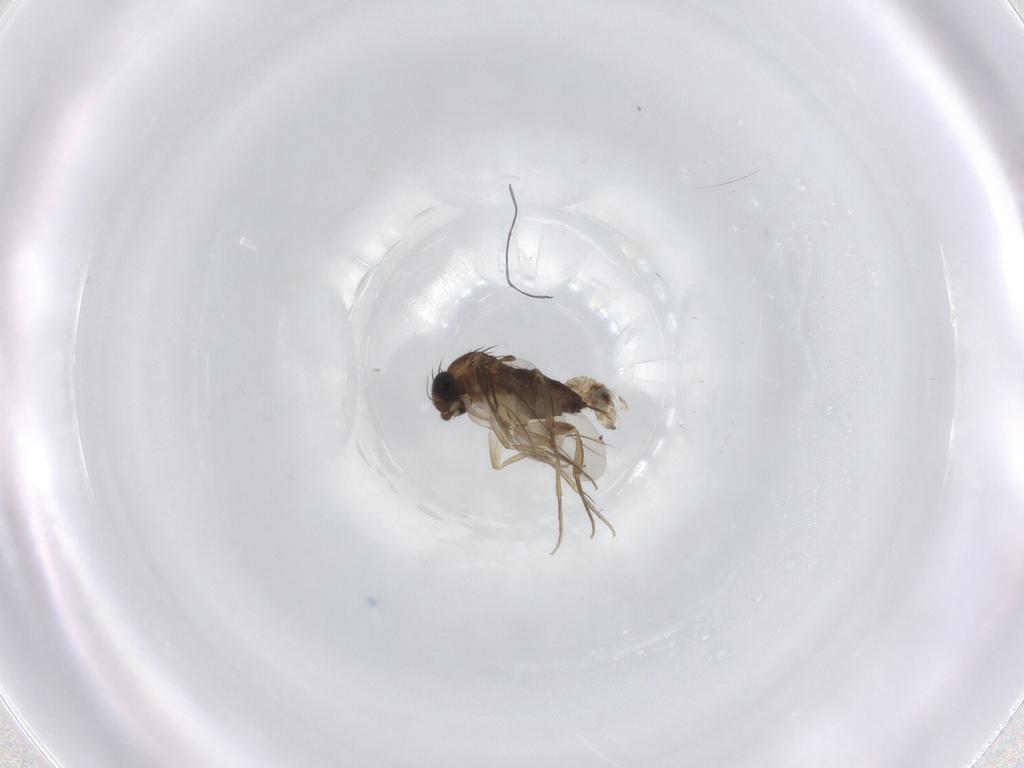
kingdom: Animalia
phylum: Arthropoda
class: Insecta
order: Diptera
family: Phoridae
